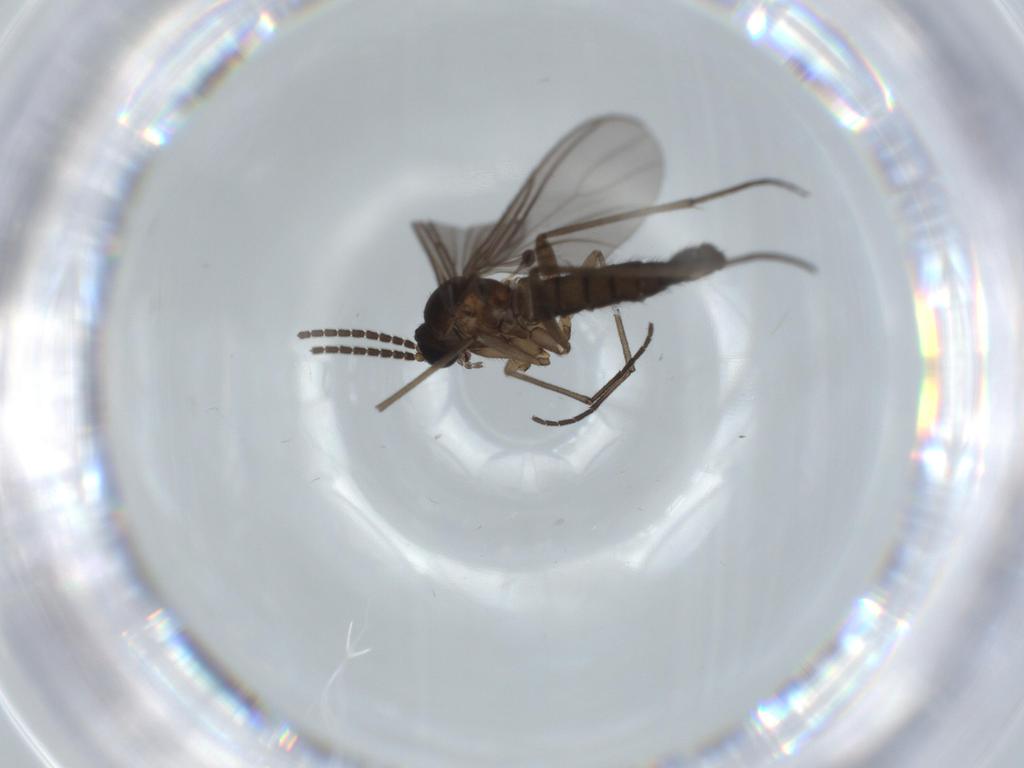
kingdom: Animalia
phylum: Arthropoda
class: Insecta
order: Diptera
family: Sciaridae
